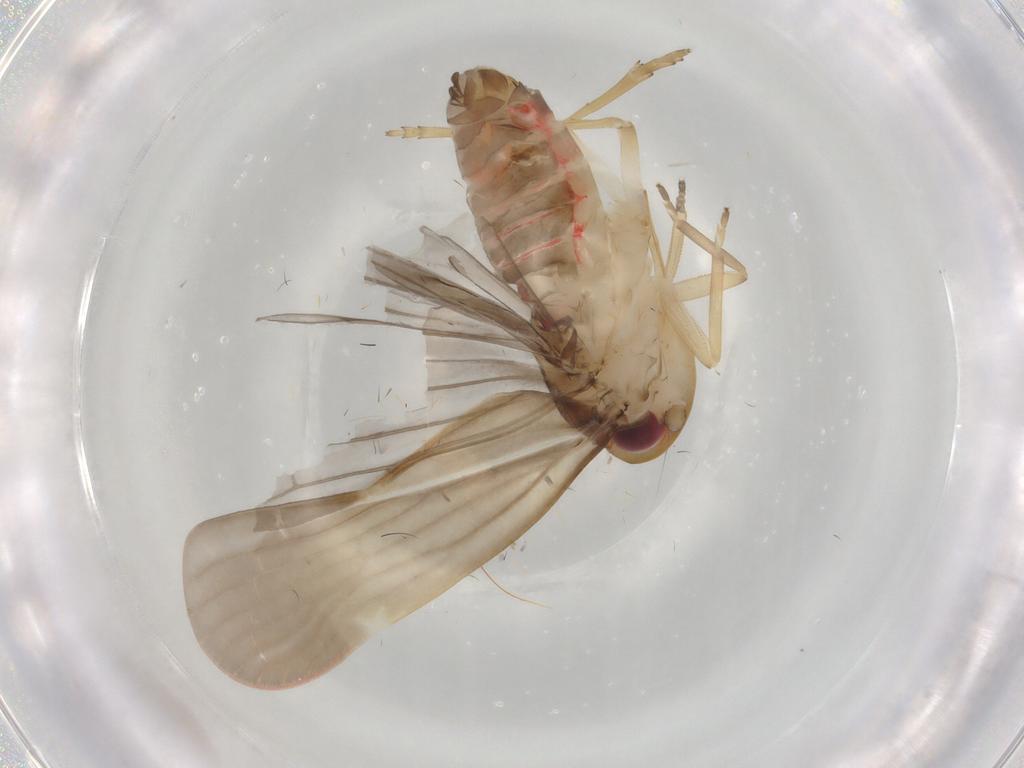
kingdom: Animalia
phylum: Arthropoda
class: Insecta
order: Hemiptera
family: Achilidae
